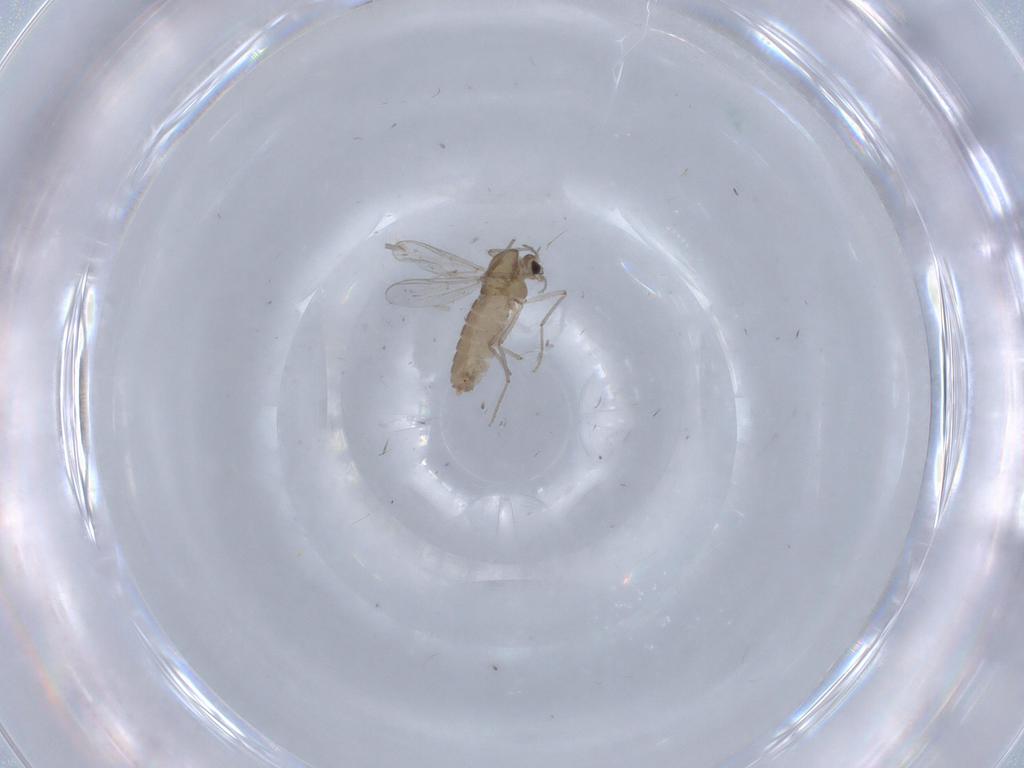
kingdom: Animalia
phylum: Arthropoda
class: Insecta
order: Diptera
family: Chironomidae
